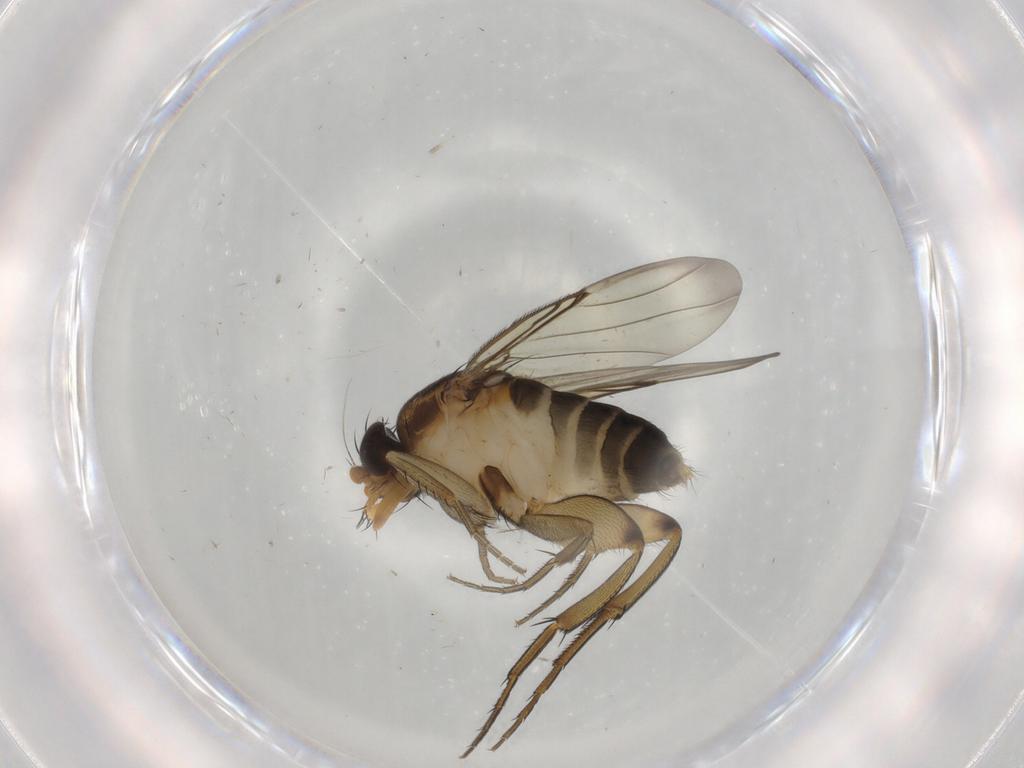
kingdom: Animalia
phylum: Arthropoda
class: Insecta
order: Diptera
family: Phoridae
